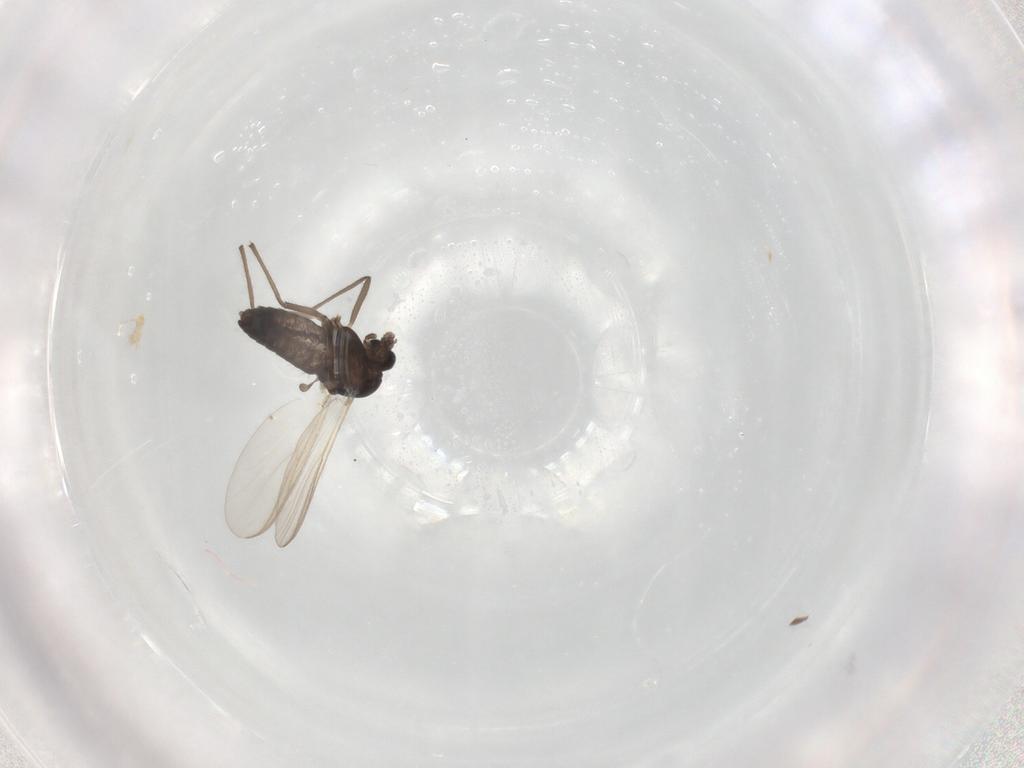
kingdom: Animalia
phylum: Arthropoda
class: Insecta
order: Diptera
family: Chironomidae
